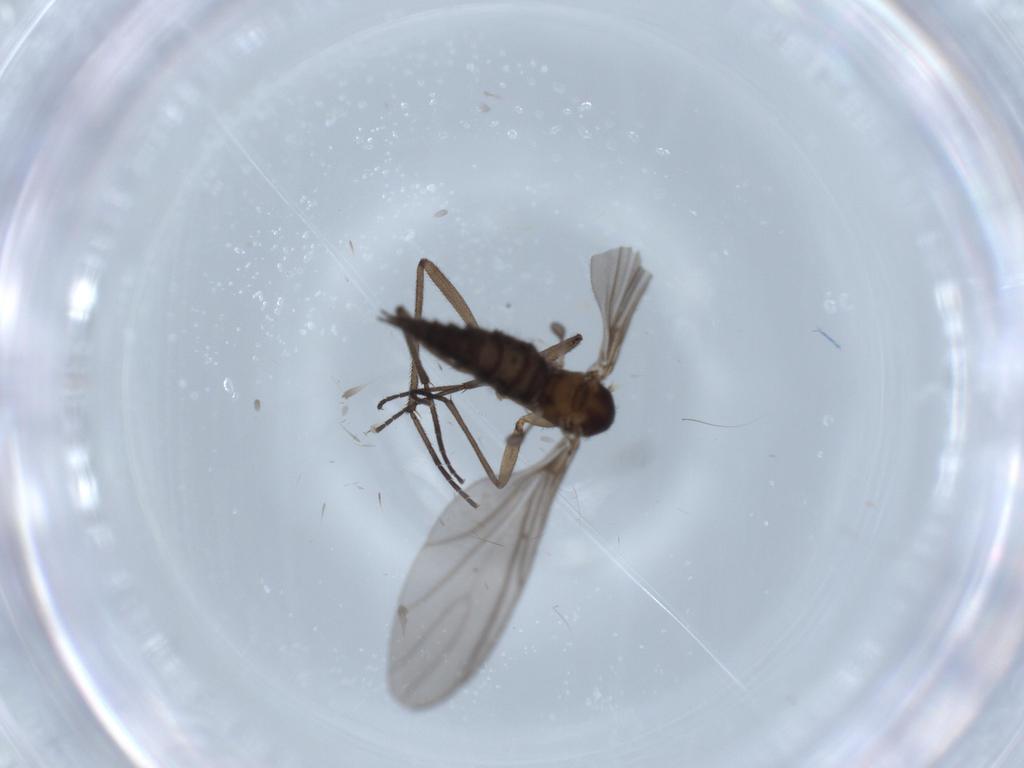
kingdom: Animalia
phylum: Arthropoda
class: Insecta
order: Diptera
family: Sciaridae
